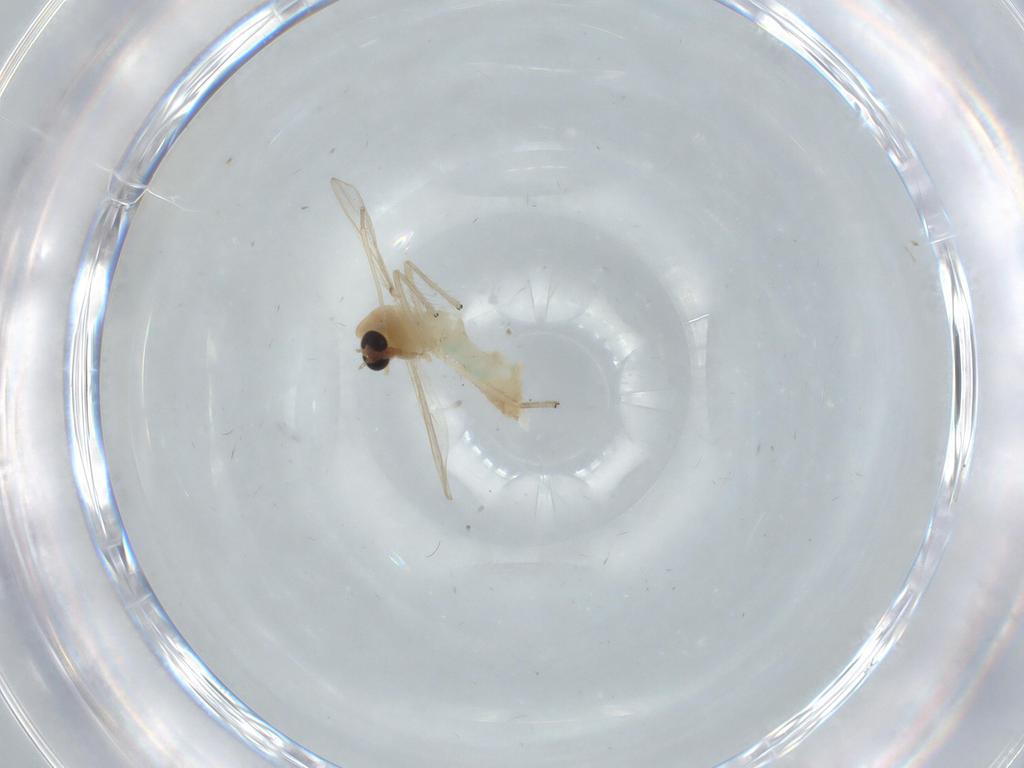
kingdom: Animalia
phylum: Arthropoda
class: Insecta
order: Diptera
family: Chironomidae
